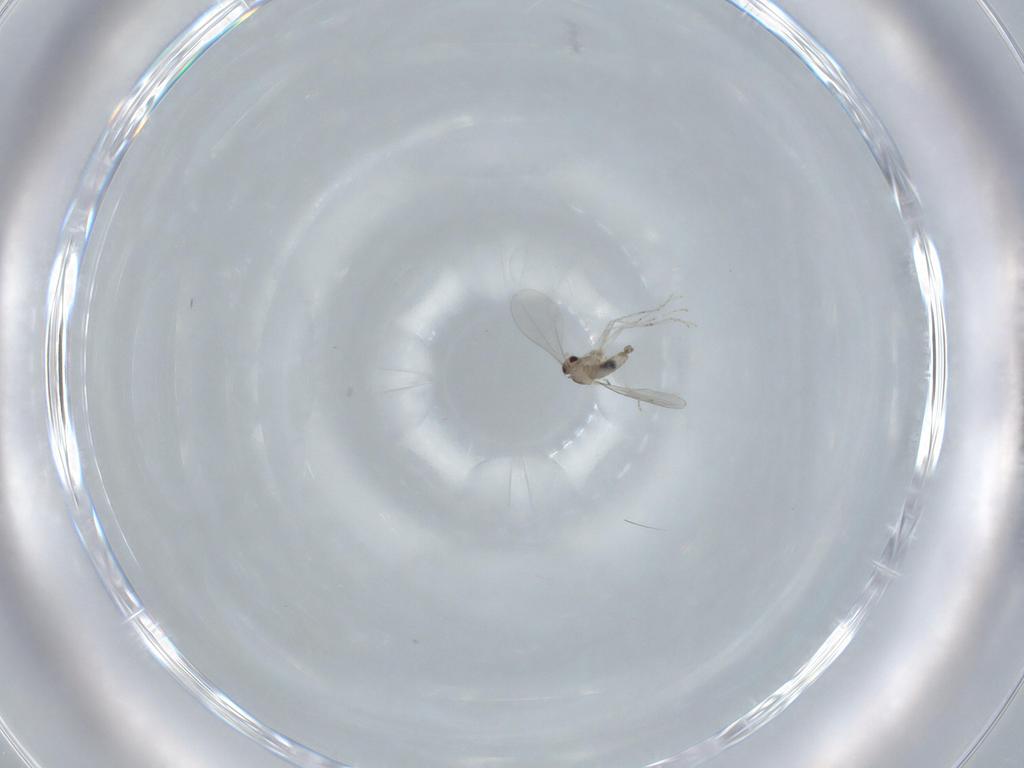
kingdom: Animalia
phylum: Arthropoda
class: Insecta
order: Diptera
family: Cecidomyiidae
